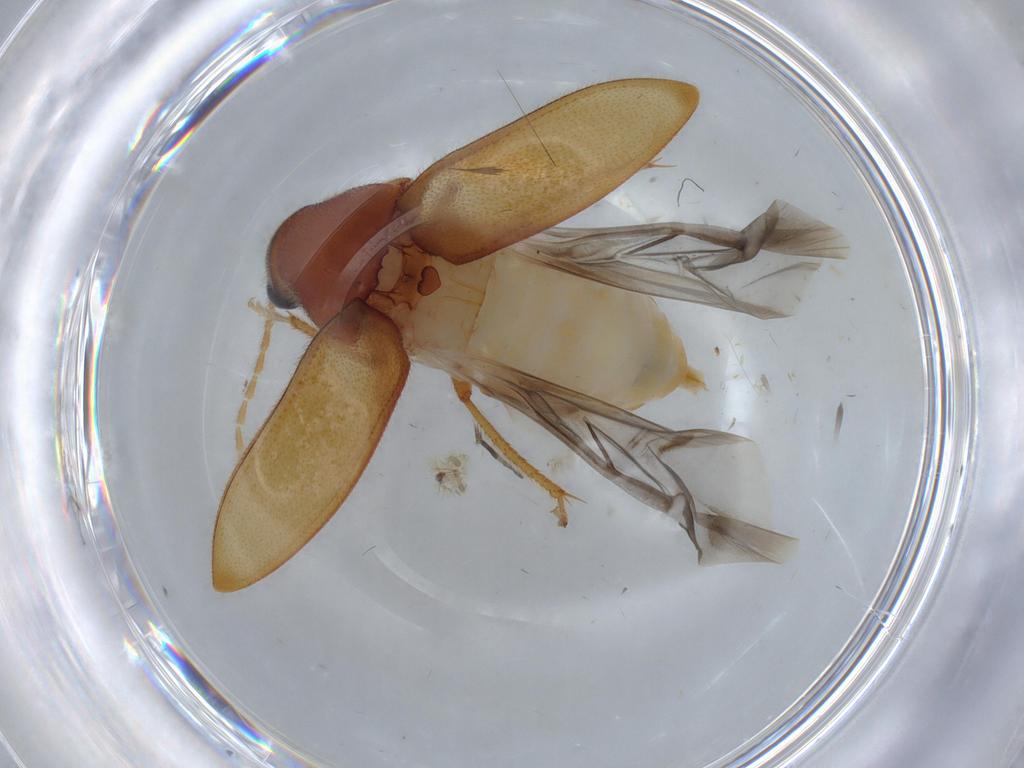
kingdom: Animalia
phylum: Arthropoda
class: Insecta
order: Coleoptera
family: Ptilodactylidae
